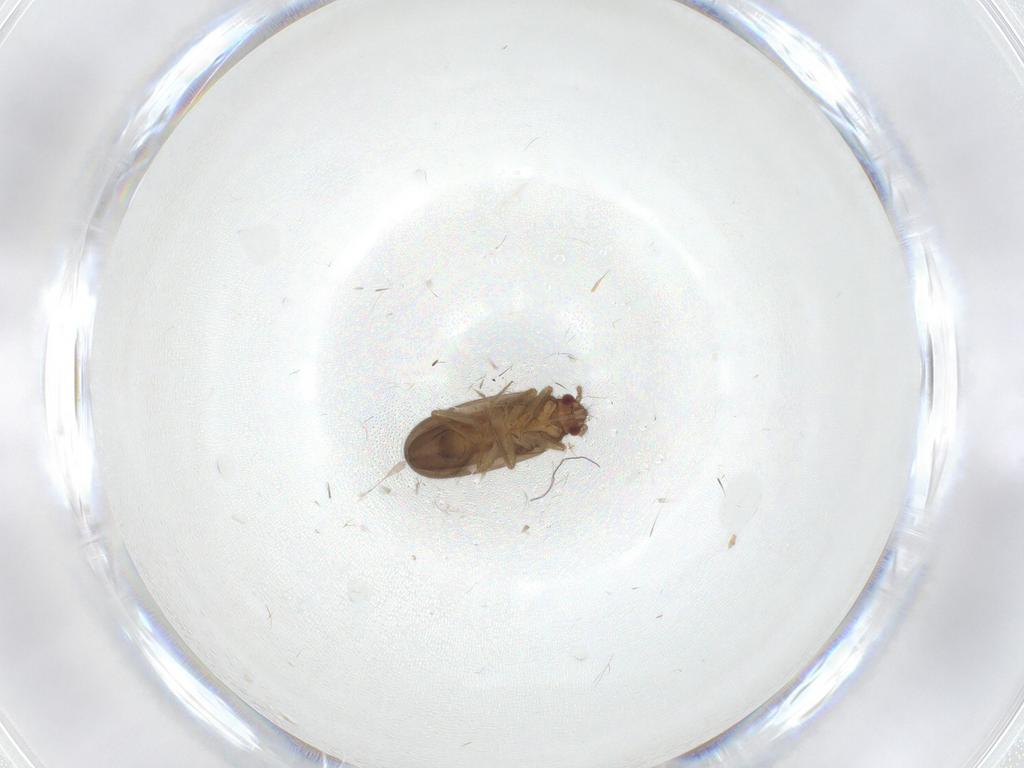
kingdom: Animalia
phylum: Arthropoda
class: Insecta
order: Hemiptera
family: Ceratocombidae
